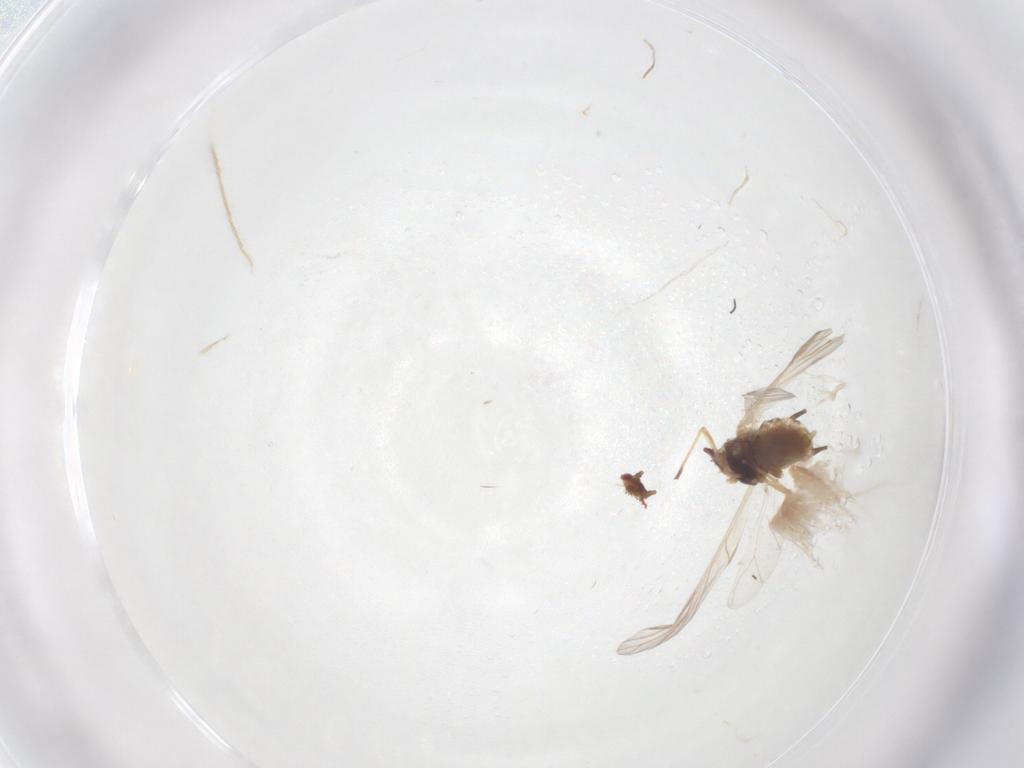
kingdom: Animalia
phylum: Arthropoda
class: Insecta
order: Hemiptera
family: Aphididae
